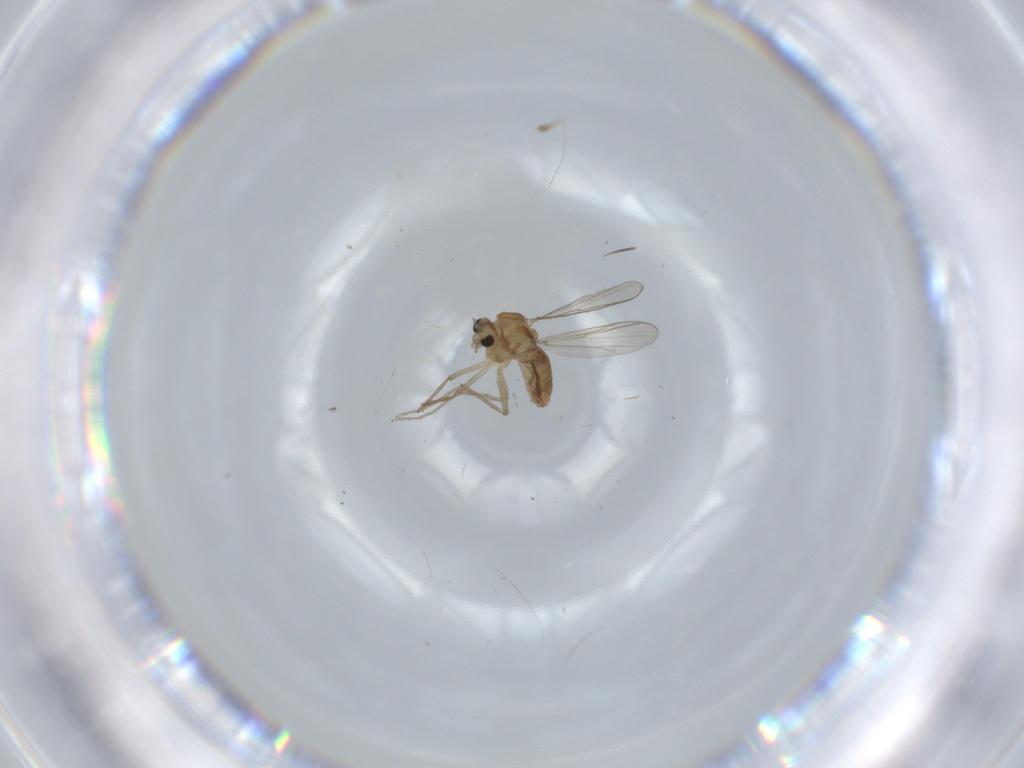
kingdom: Animalia
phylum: Arthropoda
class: Insecta
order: Diptera
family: Chironomidae
